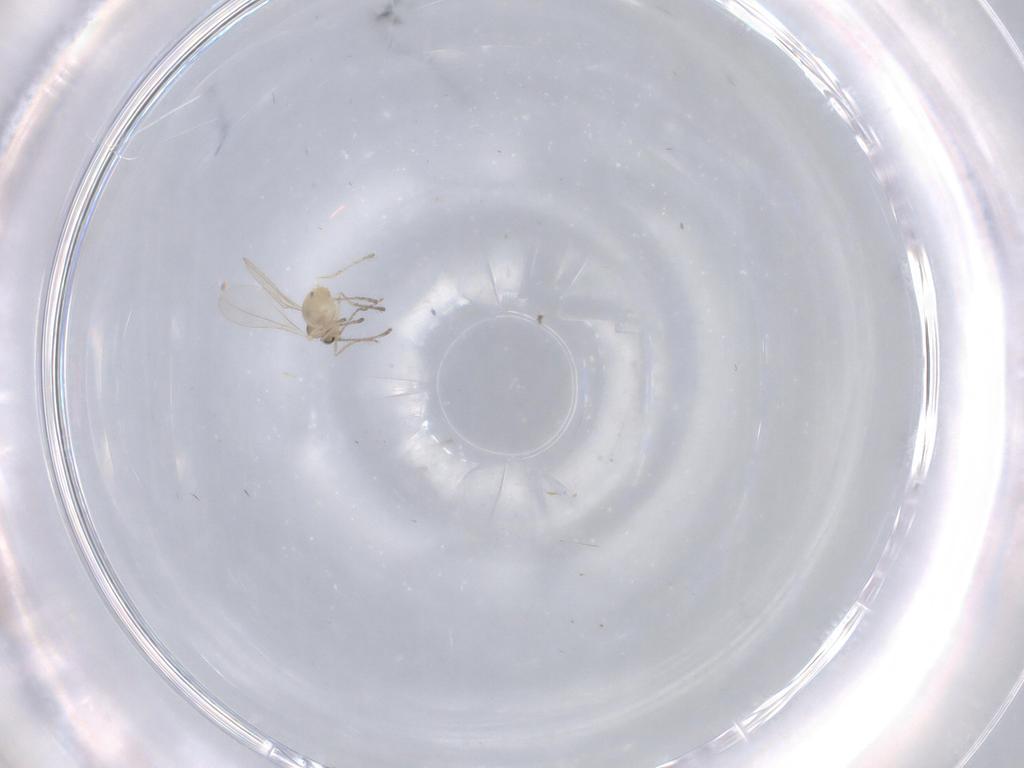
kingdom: Animalia
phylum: Arthropoda
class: Insecta
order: Diptera
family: Cecidomyiidae
